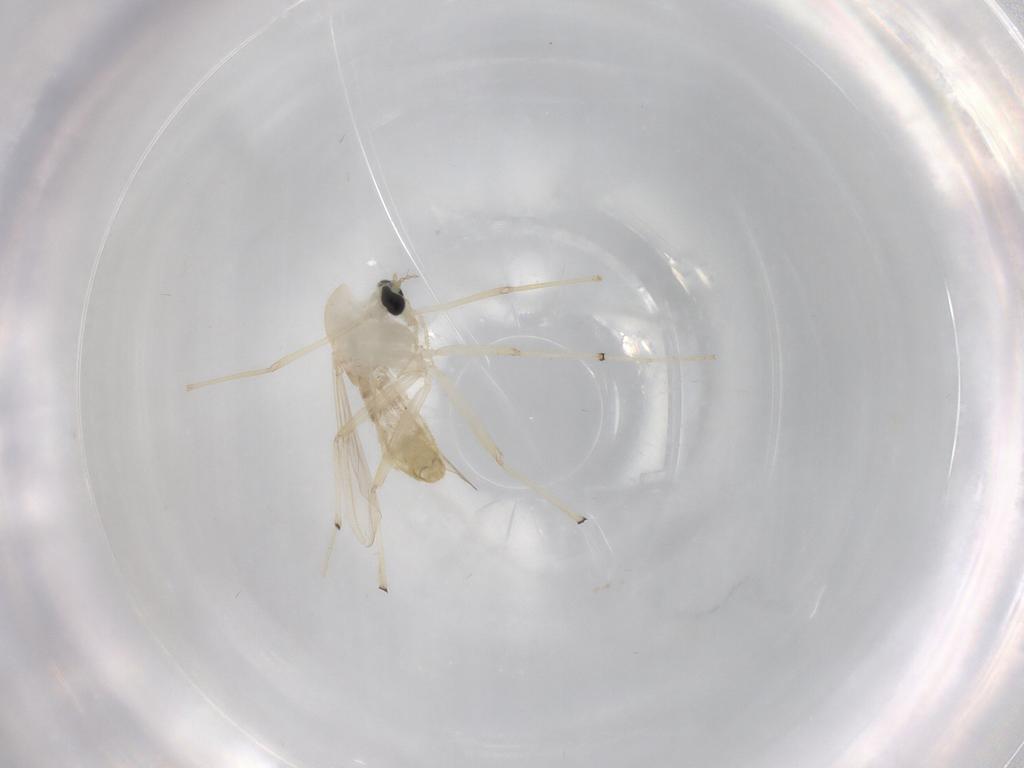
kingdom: Animalia
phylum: Arthropoda
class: Insecta
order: Diptera
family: Chironomidae
